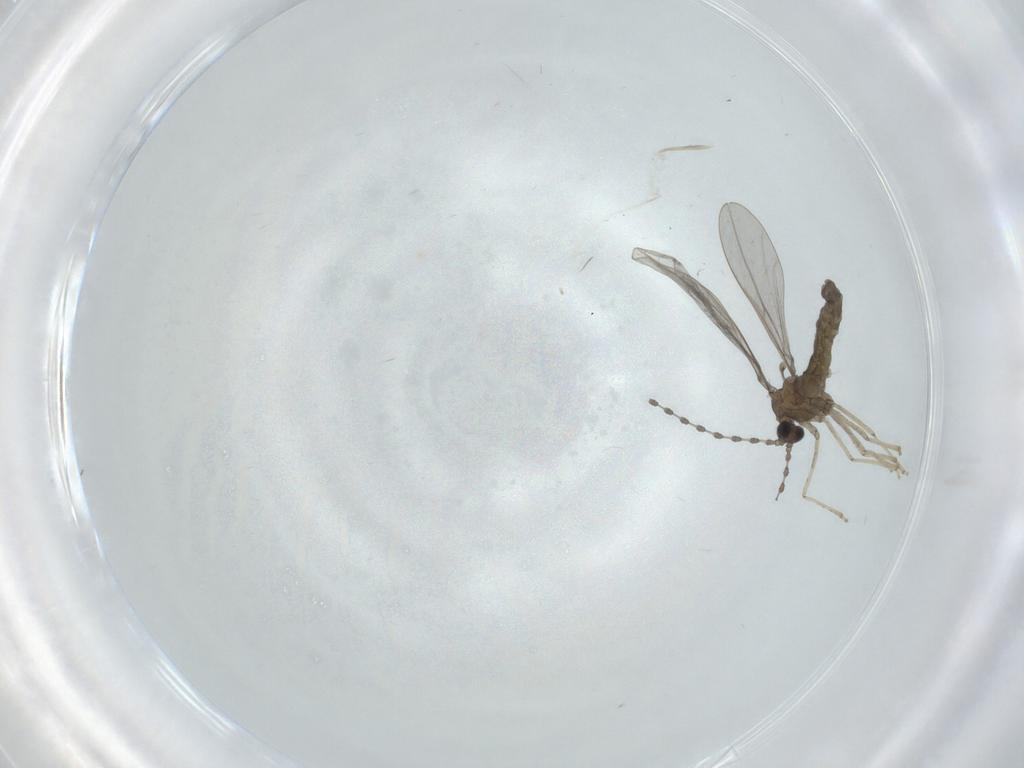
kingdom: Animalia
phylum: Arthropoda
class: Insecta
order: Diptera
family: Cecidomyiidae
